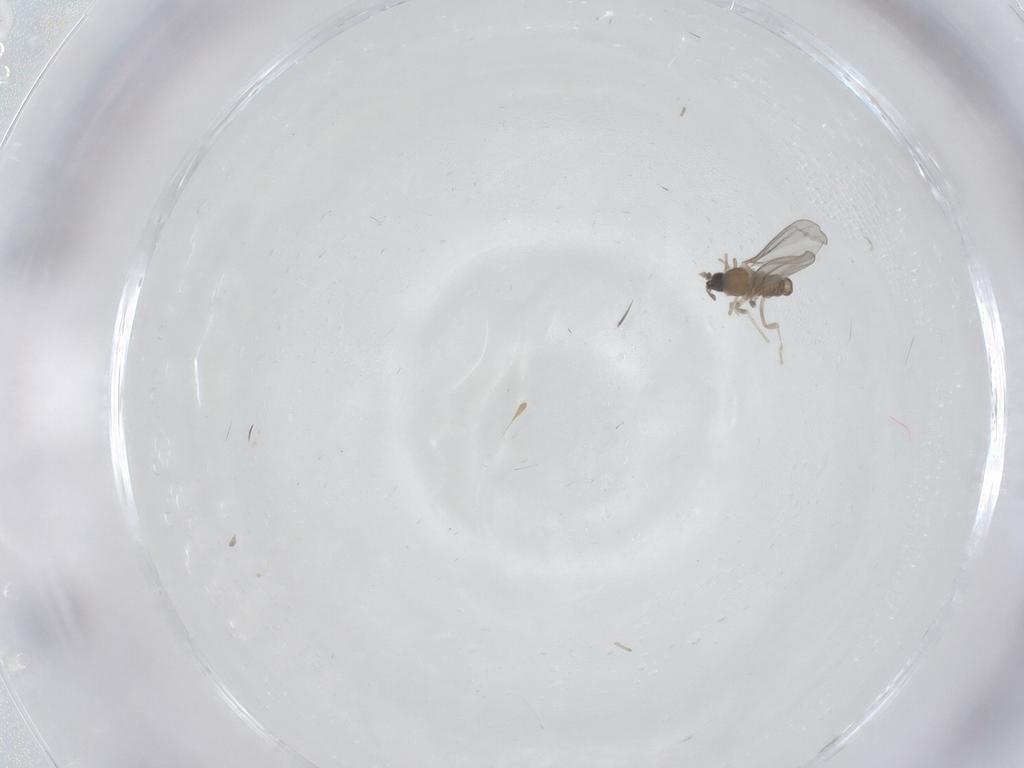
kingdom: Animalia
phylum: Arthropoda
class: Insecta
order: Diptera
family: Cecidomyiidae
